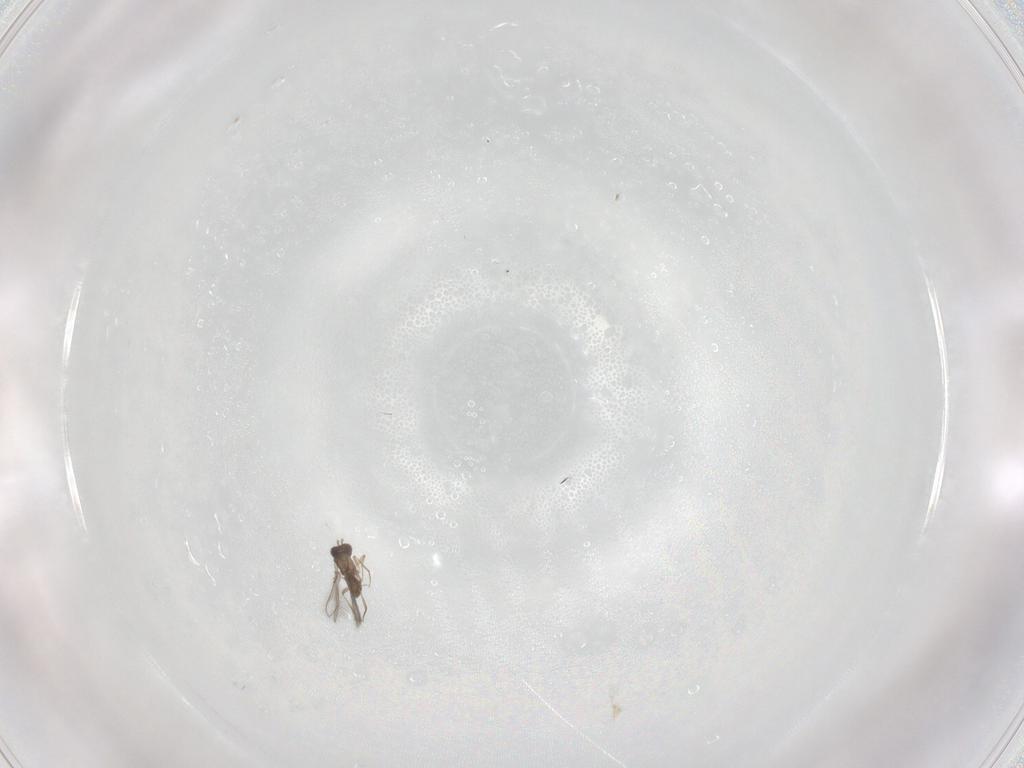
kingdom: Animalia
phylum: Arthropoda
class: Insecta
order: Hymenoptera
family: Mymaridae
